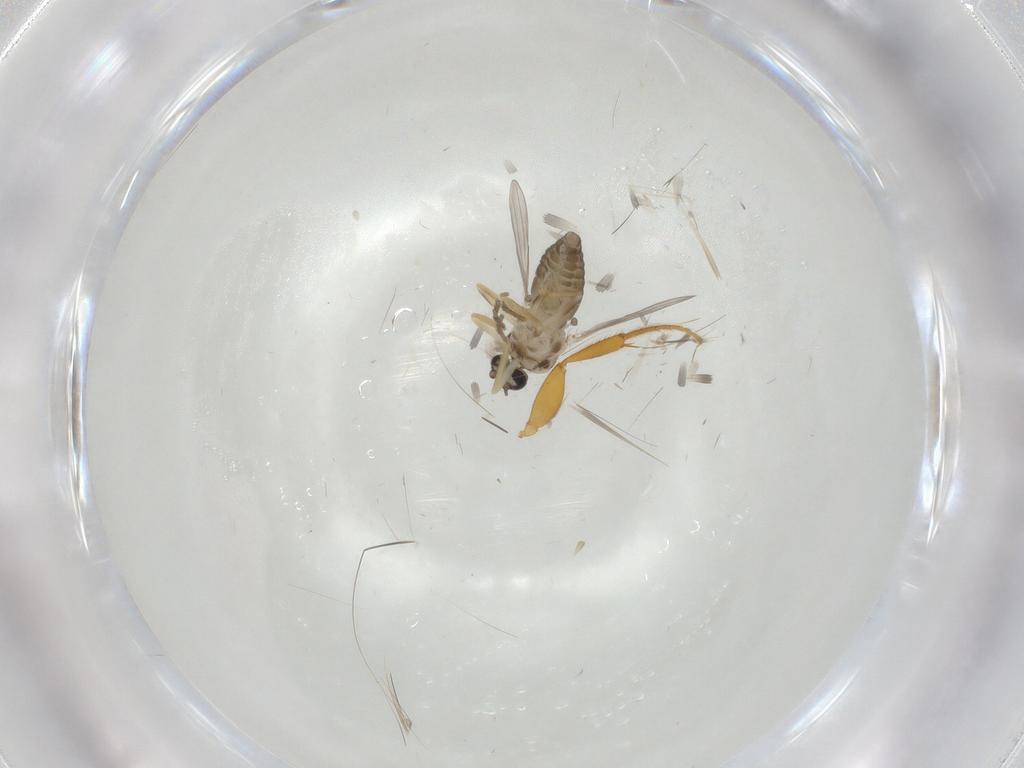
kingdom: Animalia
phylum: Arthropoda
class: Insecta
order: Diptera
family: Ceratopogonidae
